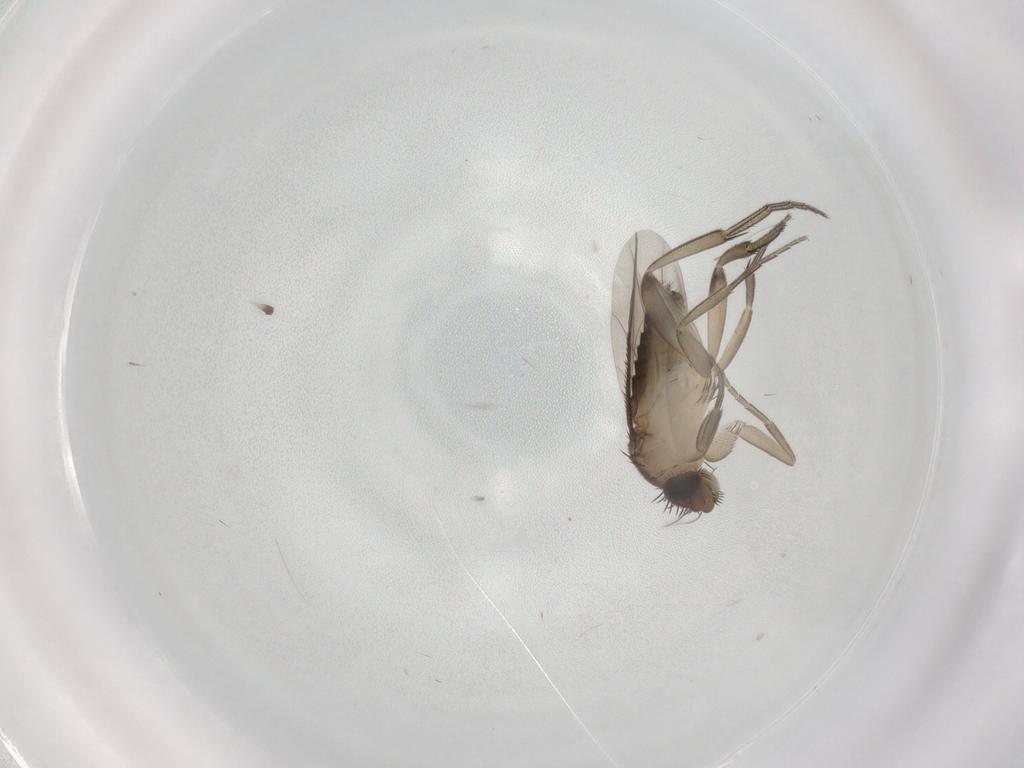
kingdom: Animalia
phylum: Arthropoda
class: Insecta
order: Diptera
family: Phoridae
